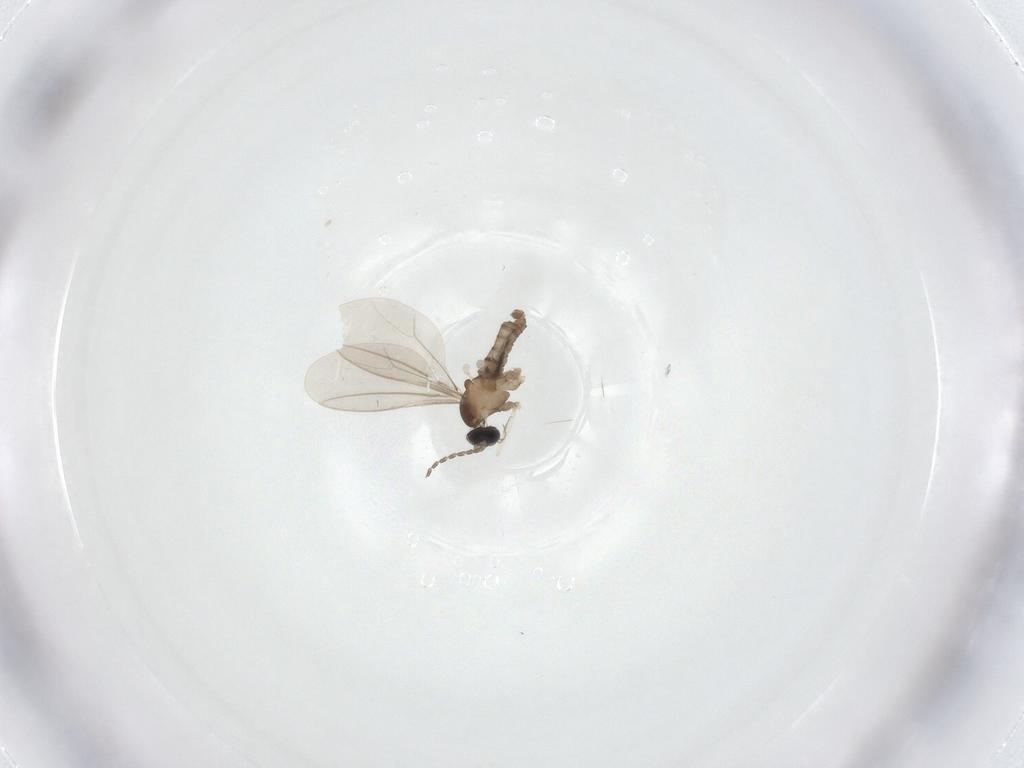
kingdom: Animalia
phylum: Arthropoda
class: Insecta
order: Diptera
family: Cecidomyiidae
